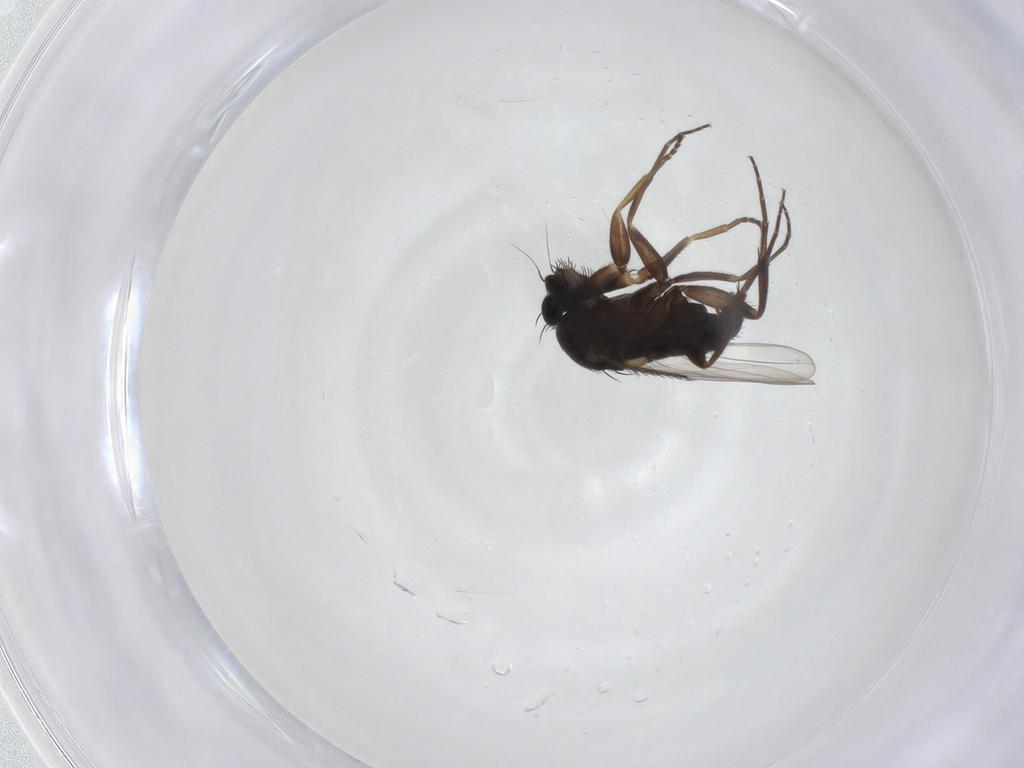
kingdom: Animalia
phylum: Arthropoda
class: Insecta
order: Diptera
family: Phoridae
